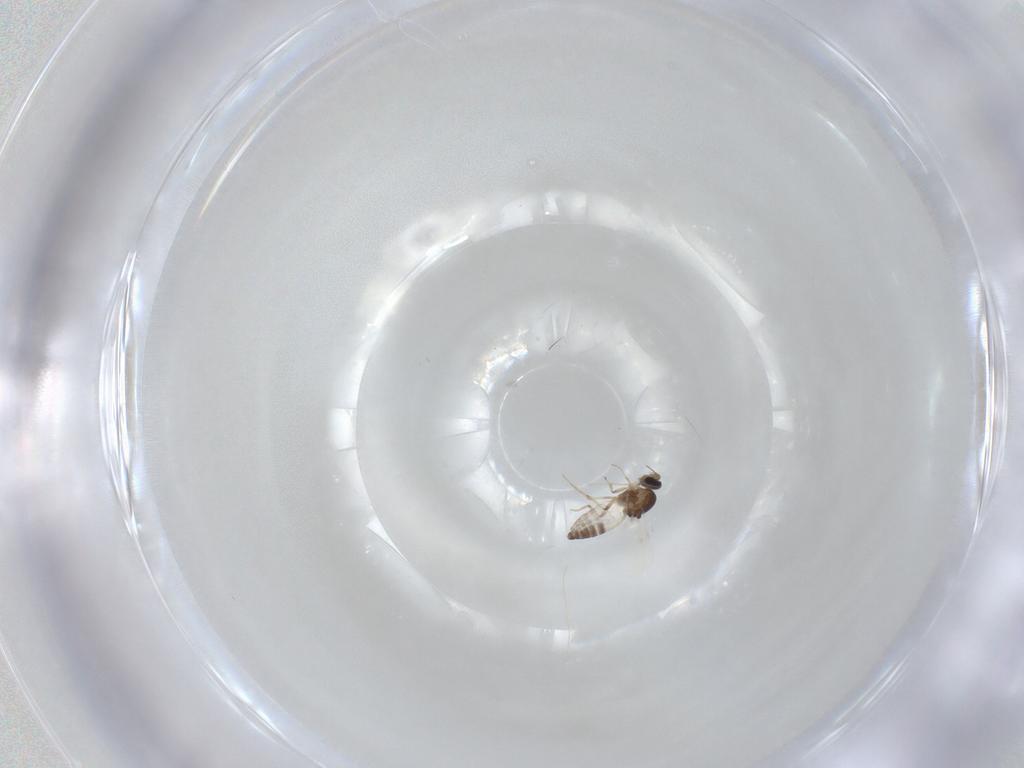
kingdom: Animalia
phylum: Arthropoda
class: Insecta
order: Diptera
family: Ceratopogonidae
